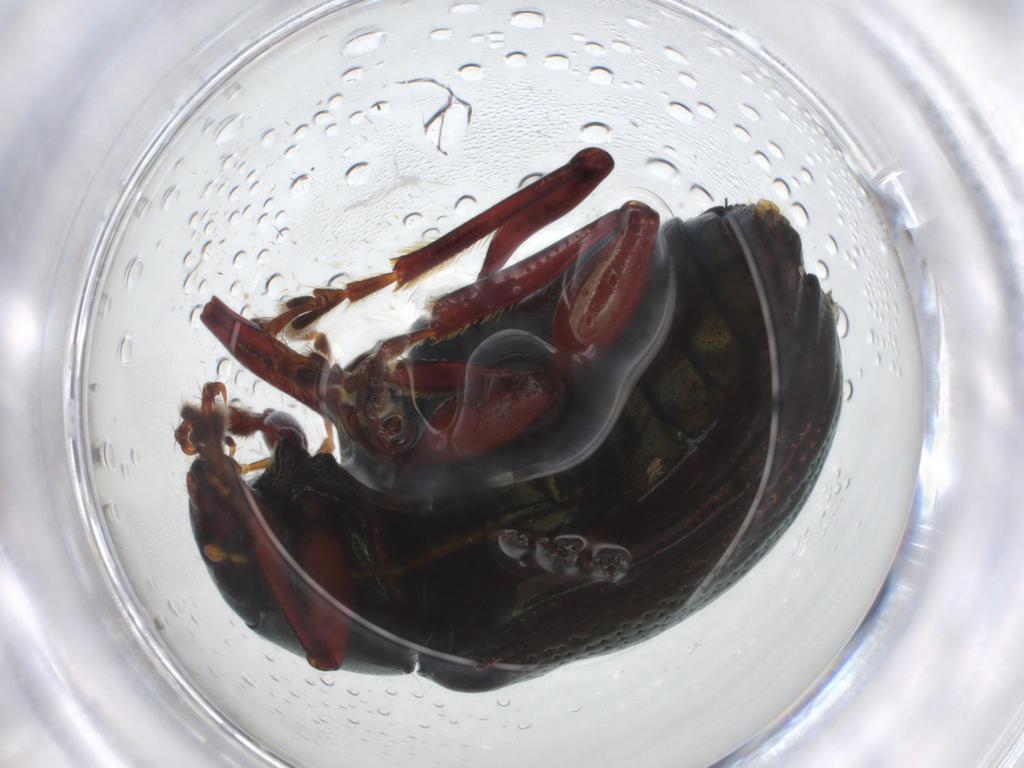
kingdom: Animalia
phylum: Arthropoda
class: Insecta
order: Coleoptera
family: Chrysomelidae
